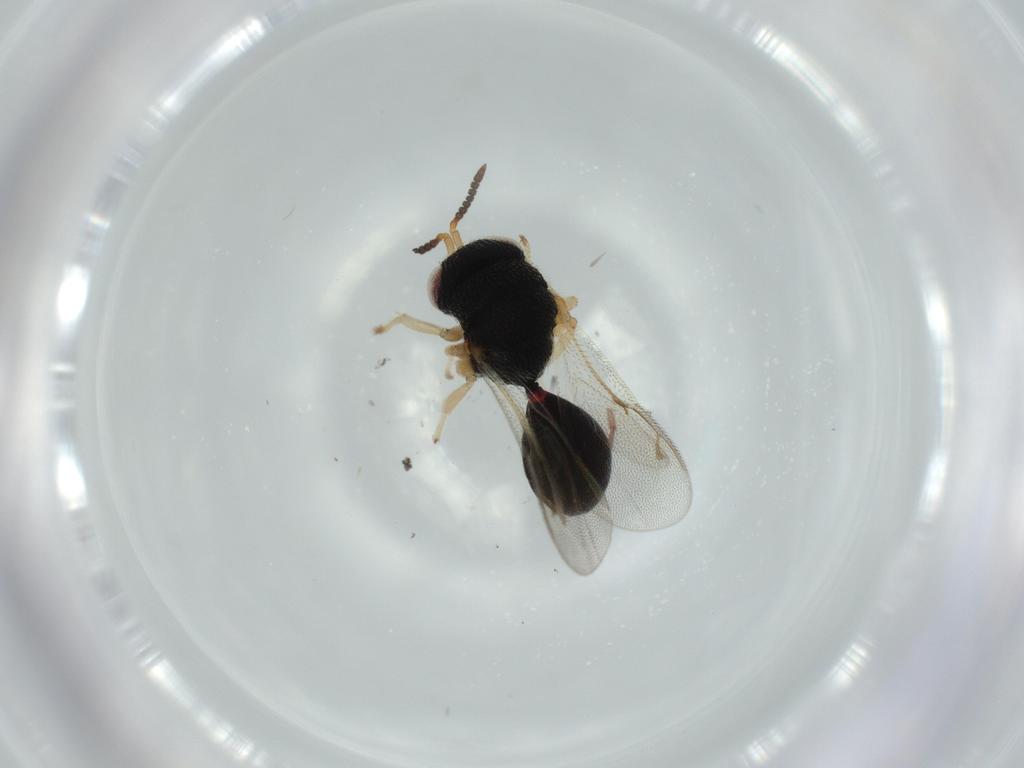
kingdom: Animalia
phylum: Arthropoda
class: Insecta
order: Hymenoptera
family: Eurytomidae
